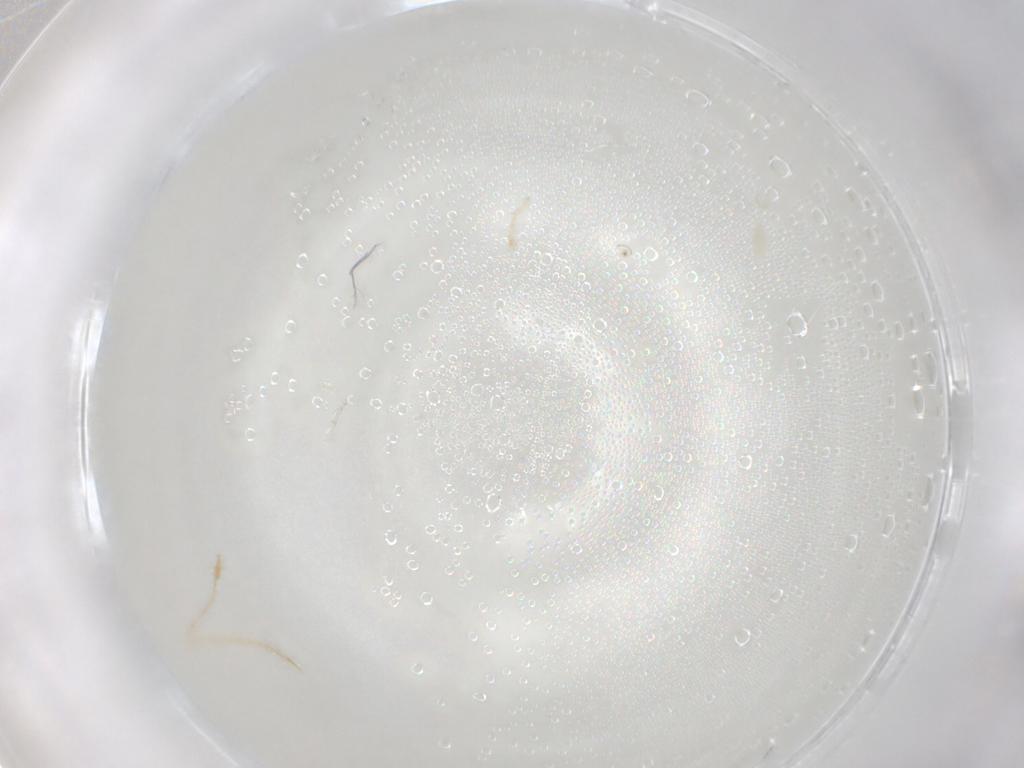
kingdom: Animalia
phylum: Arthropoda
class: Arachnida
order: Trombidiformes
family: Eupodidae
